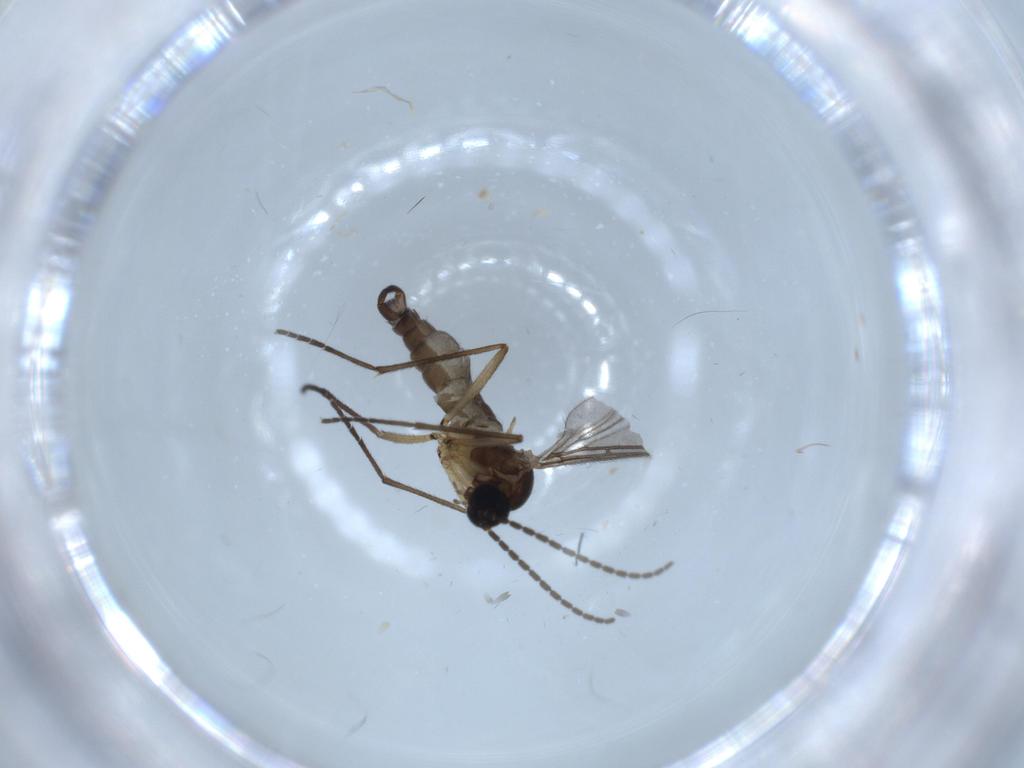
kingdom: Animalia
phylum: Arthropoda
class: Insecta
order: Diptera
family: Sciaridae
